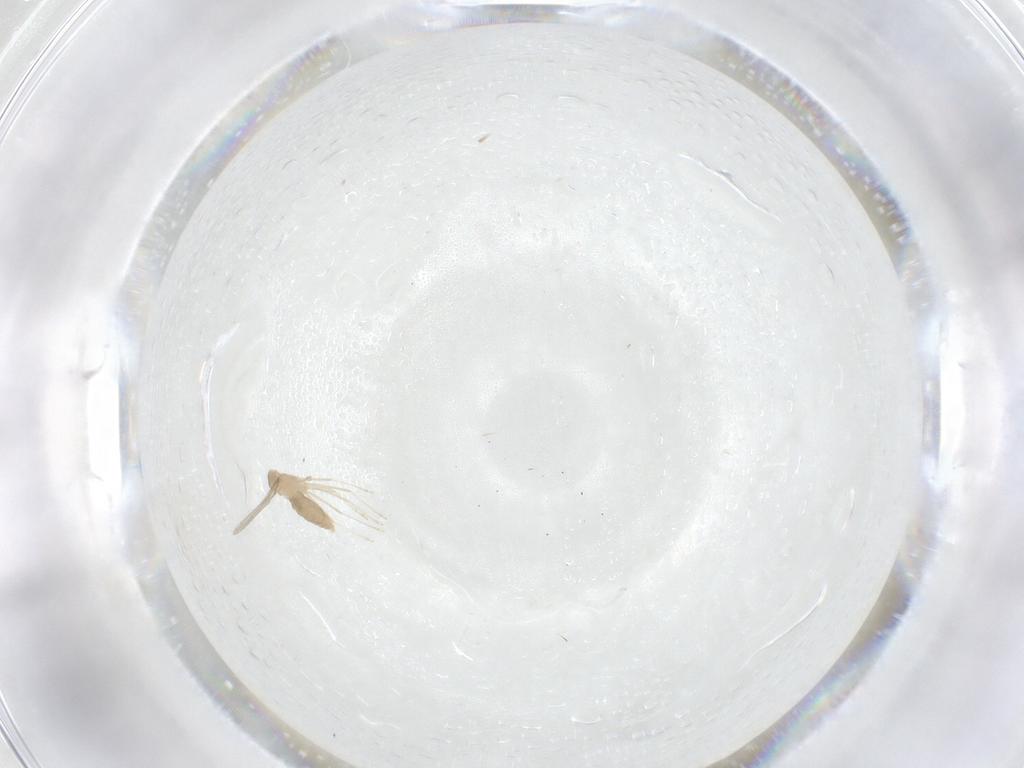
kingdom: Animalia
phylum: Arthropoda
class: Insecta
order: Diptera
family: Cecidomyiidae
